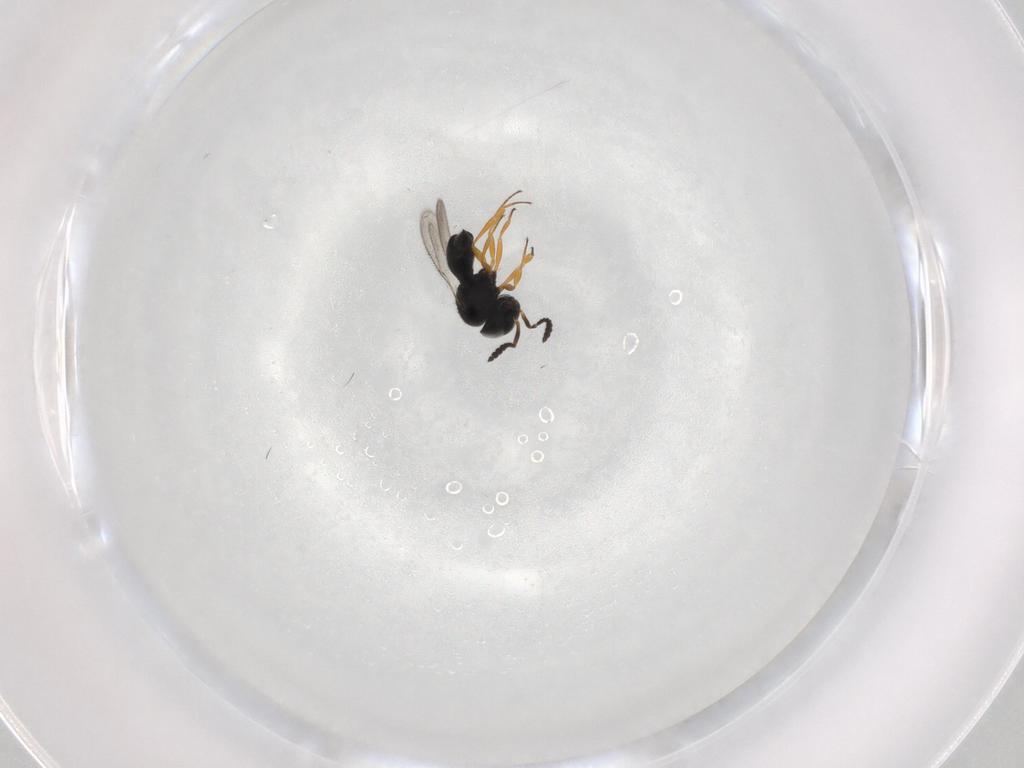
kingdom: Animalia
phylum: Arthropoda
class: Insecta
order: Hymenoptera
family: Scelionidae
